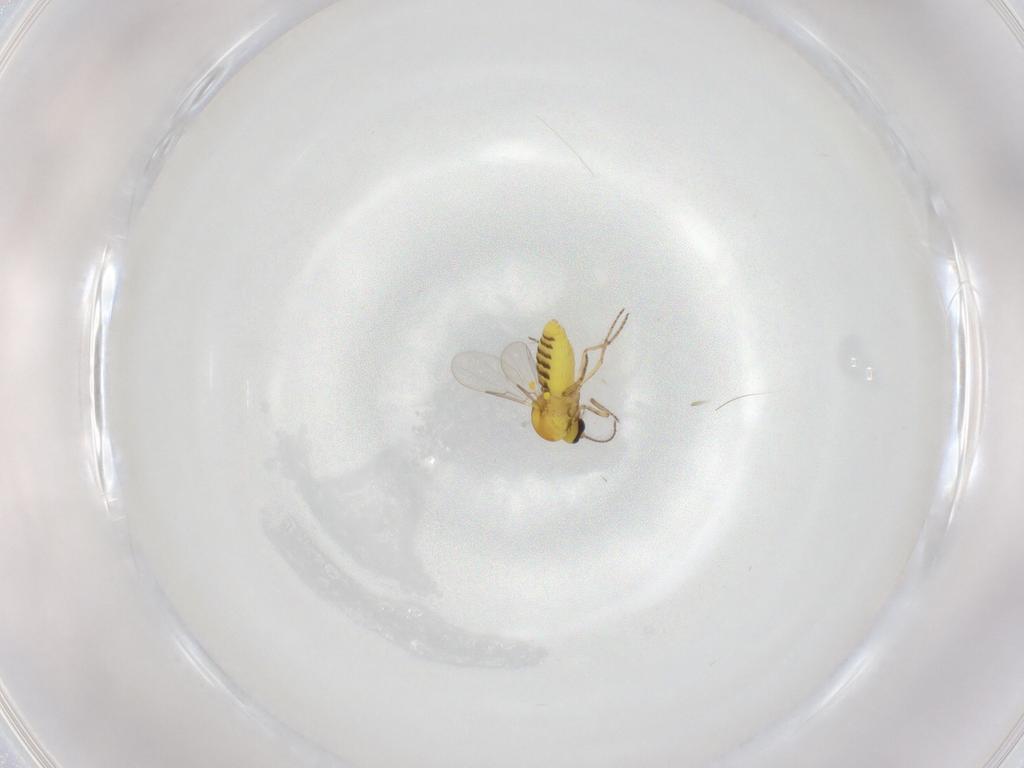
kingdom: Animalia
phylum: Arthropoda
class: Insecta
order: Diptera
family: Ceratopogonidae
